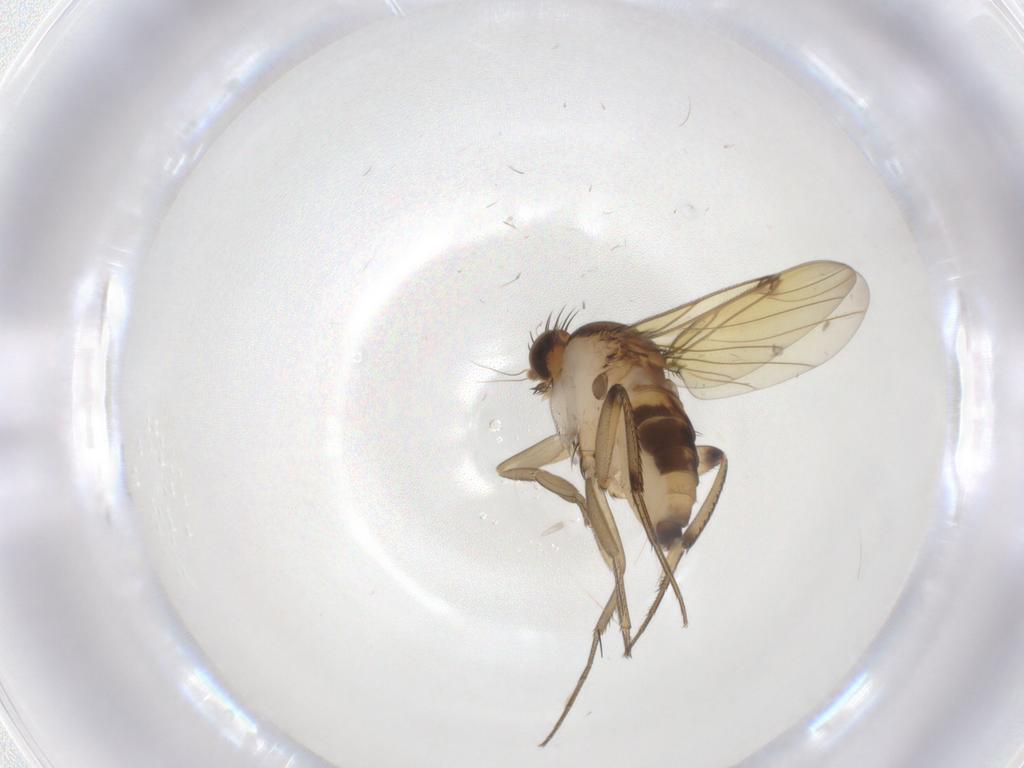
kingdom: Animalia
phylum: Arthropoda
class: Insecta
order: Diptera
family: Phoridae
